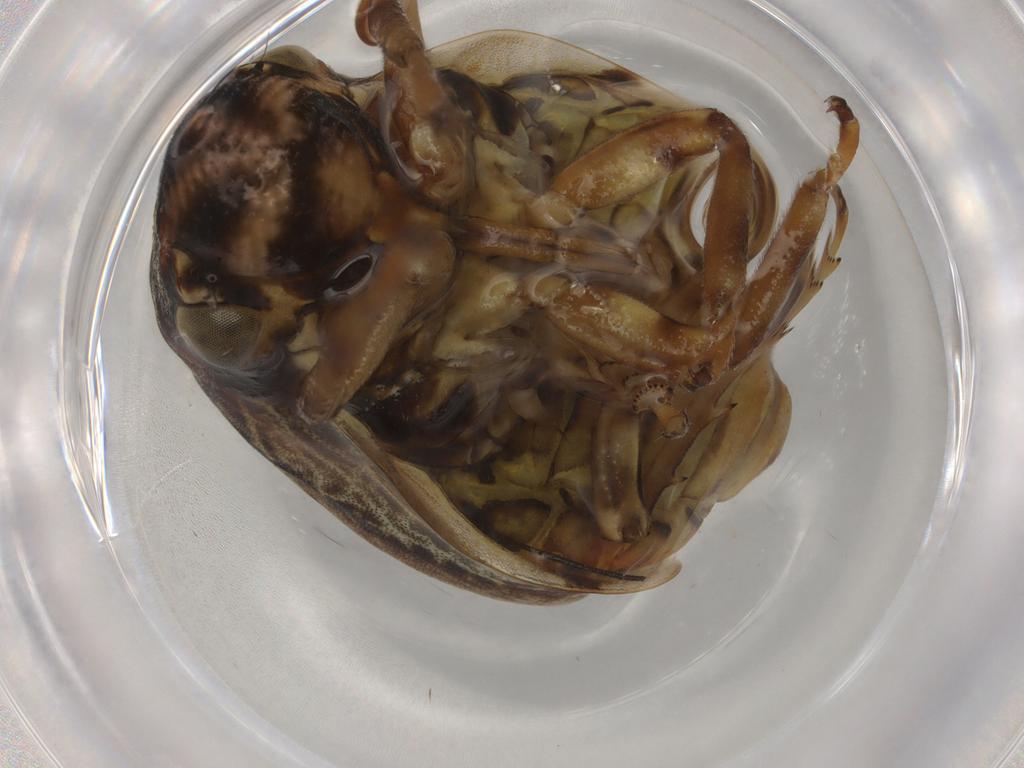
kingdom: Animalia
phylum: Arthropoda
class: Insecta
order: Hemiptera
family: Aphrophoridae
